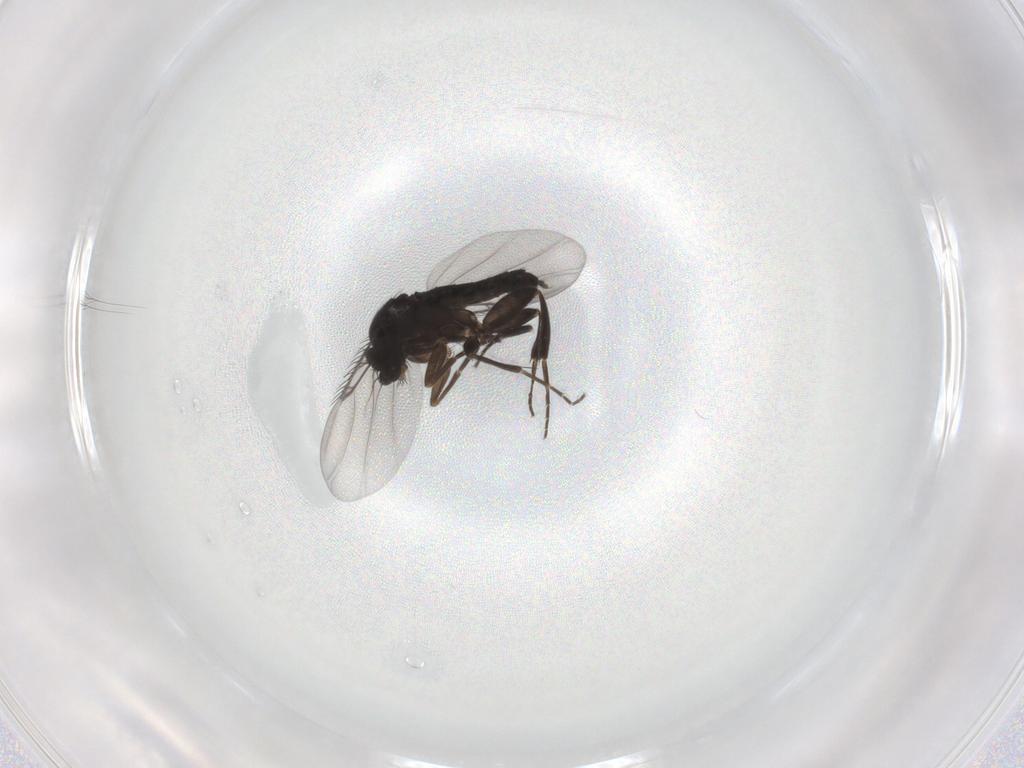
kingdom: Animalia
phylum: Arthropoda
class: Insecta
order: Diptera
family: Phoridae
